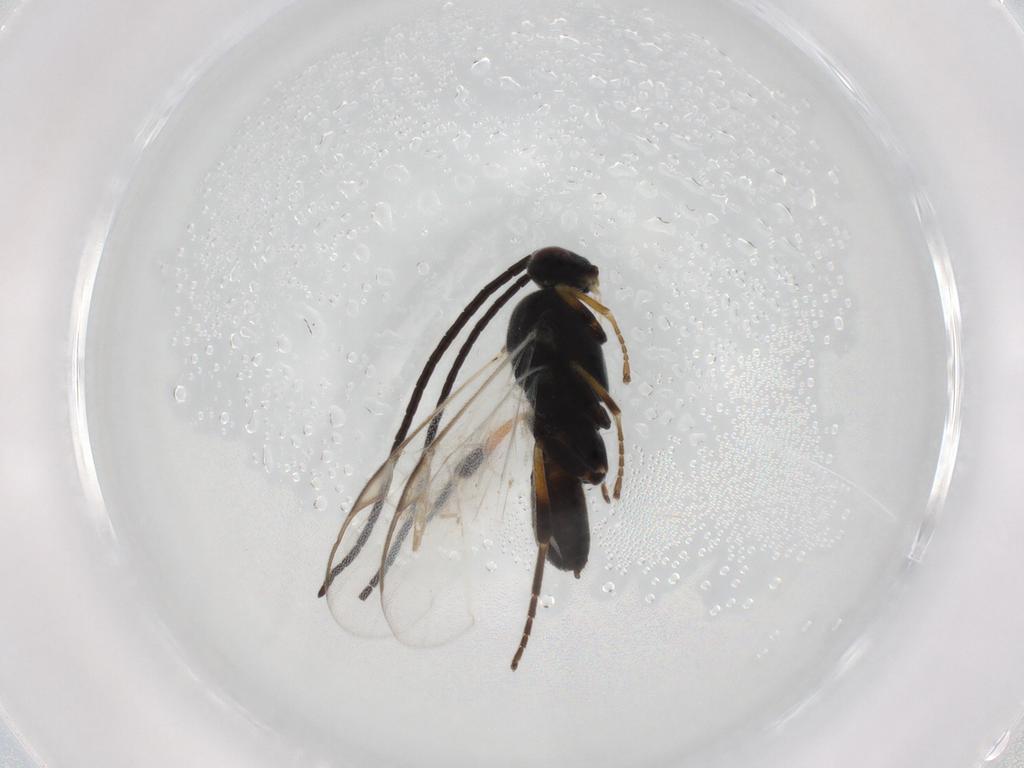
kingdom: Animalia
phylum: Arthropoda
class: Insecta
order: Hymenoptera
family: Braconidae
